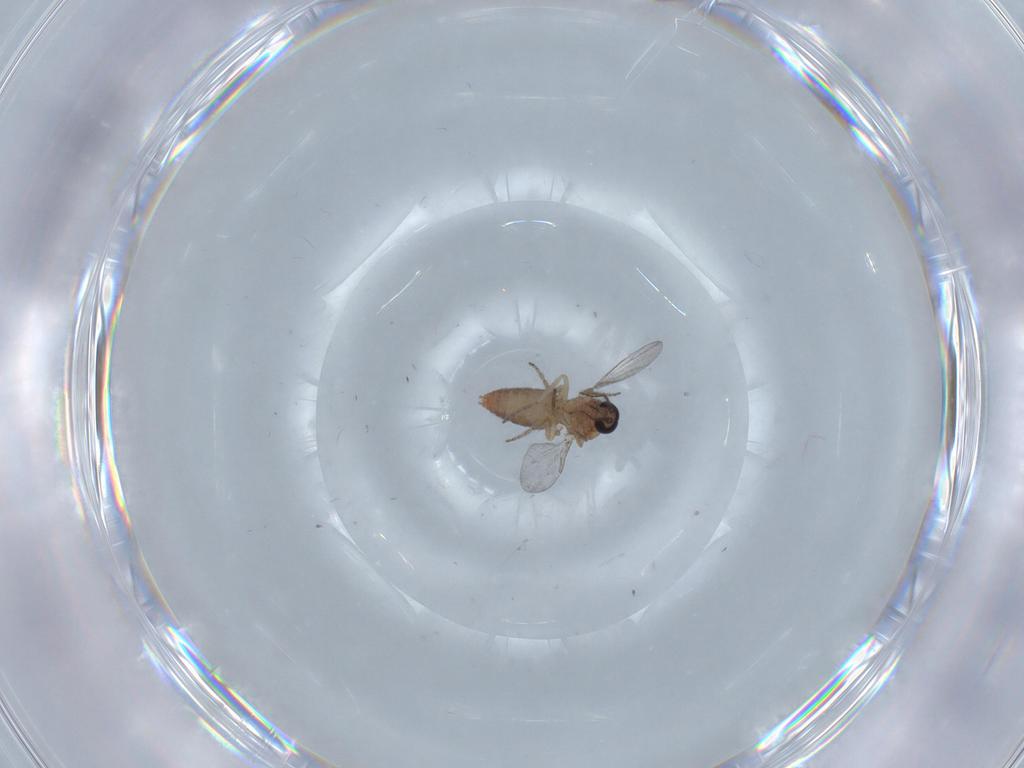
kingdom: Animalia
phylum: Arthropoda
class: Insecta
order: Diptera
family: Ceratopogonidae
